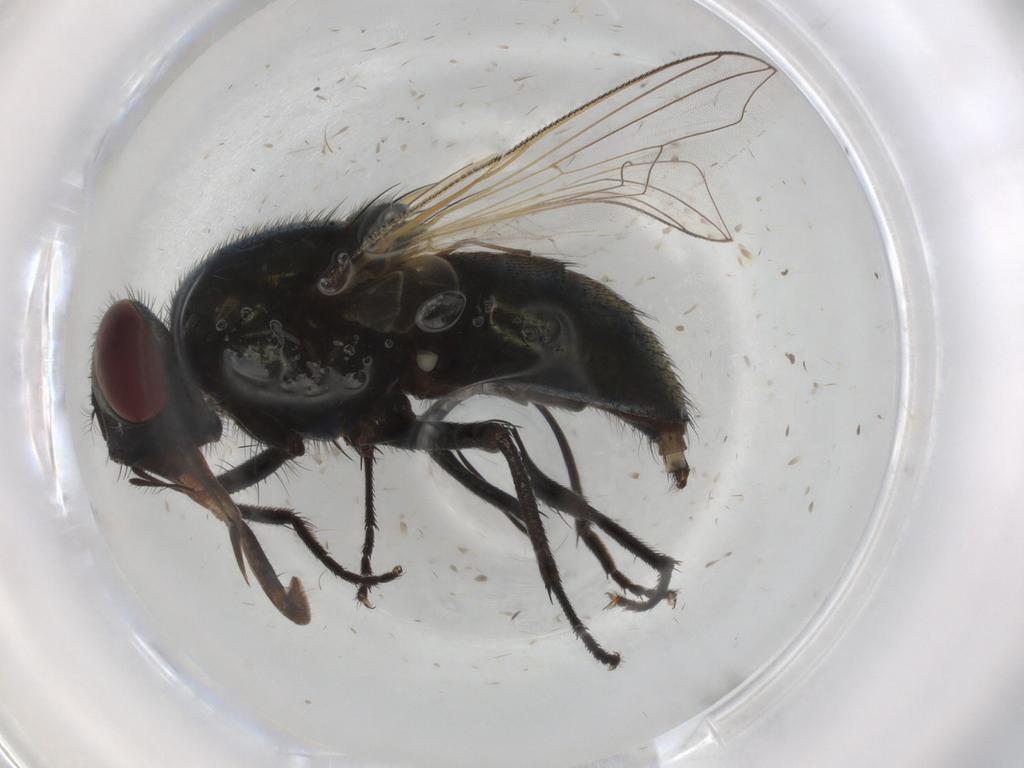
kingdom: Animalia
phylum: Arthropoda
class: Insecta
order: Diptera
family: Muscidae
